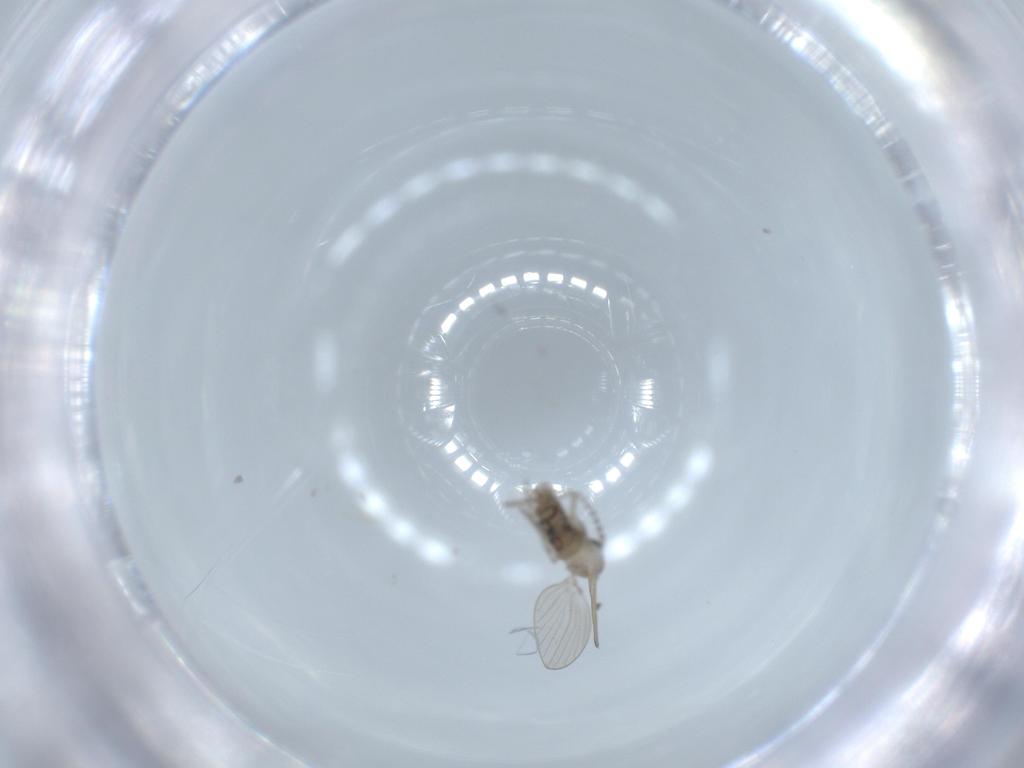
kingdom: Animalia
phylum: Arthropoda
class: Insecta
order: Diptera
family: Psychodidae
